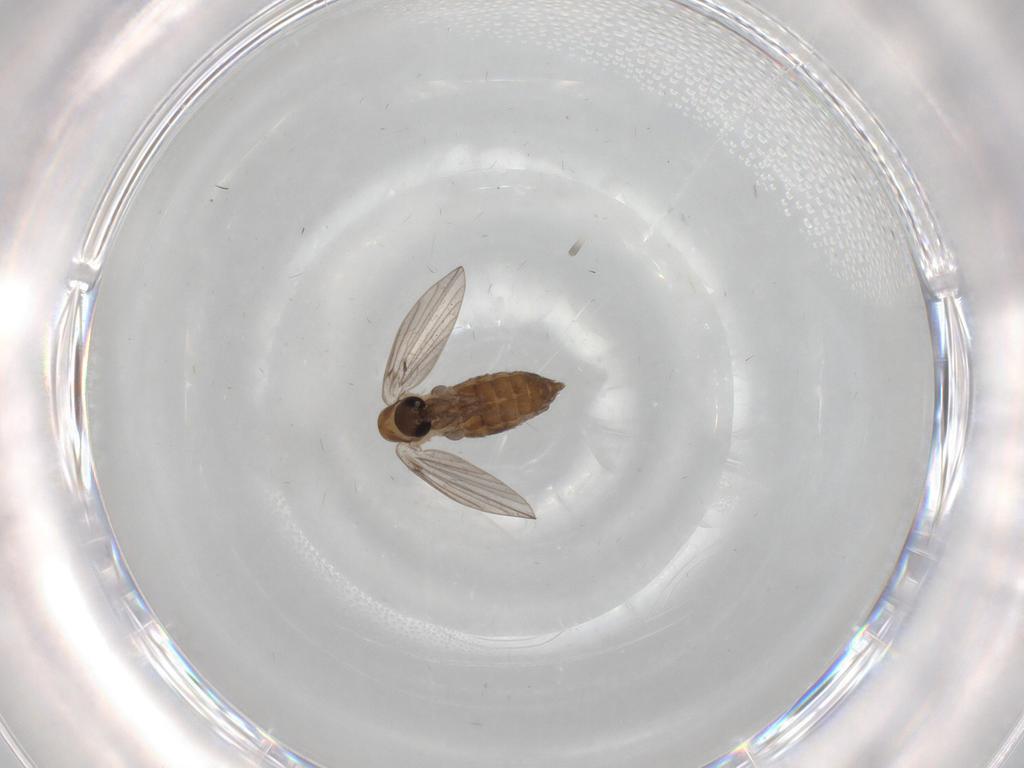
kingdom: Animalia
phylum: Arthropoda
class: Insecta
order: Diptera
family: Psychodidae
